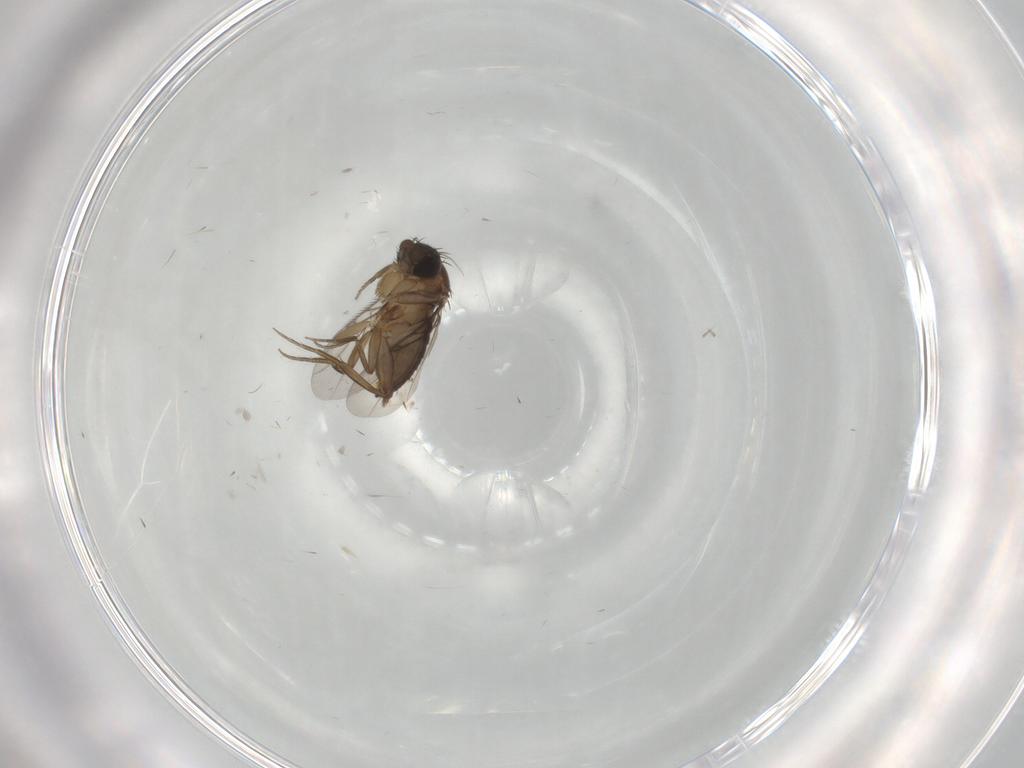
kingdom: Animalia
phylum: Arthropoda
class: Insecta
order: Diptera
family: Phoridae
